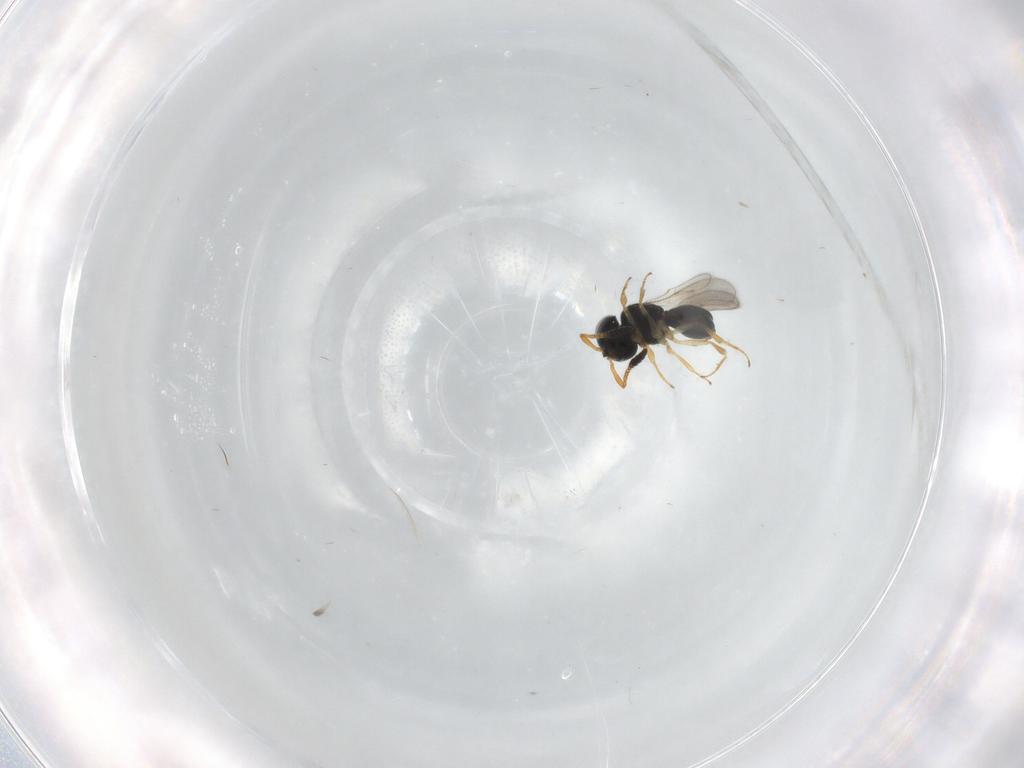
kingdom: Animalia
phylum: Arthropoda
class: Insecta
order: Hymenoptera
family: Scelionidae
